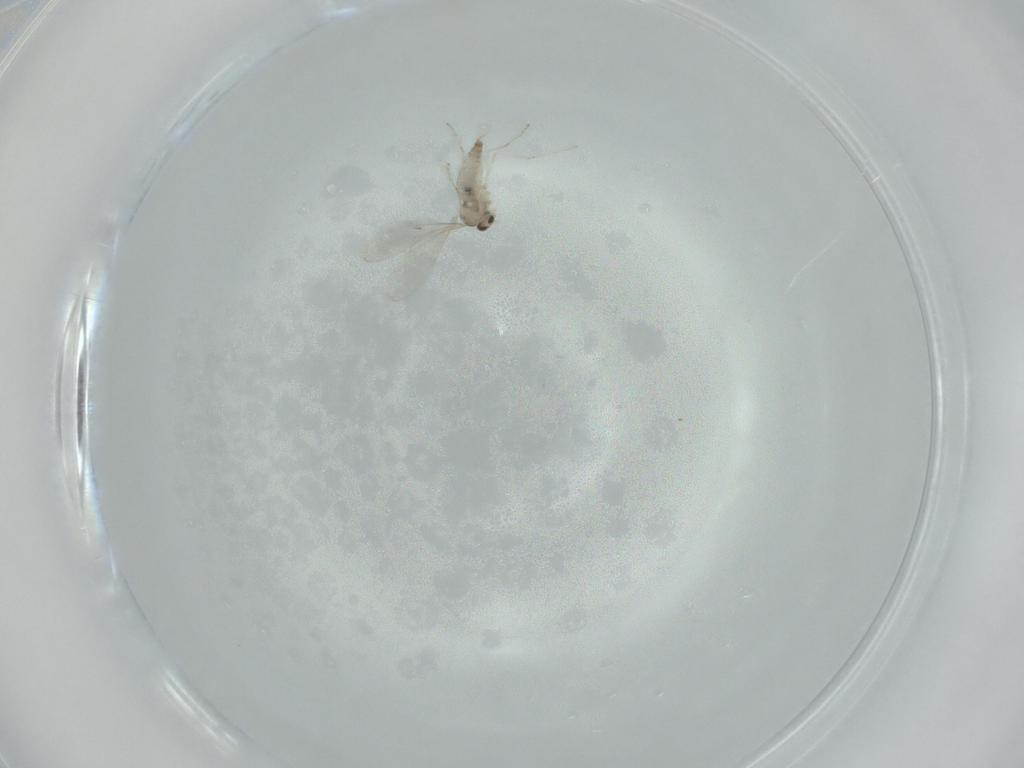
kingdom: Animalia
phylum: Arthropoda
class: Insecta
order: Diptera
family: Cecidomyiidae
